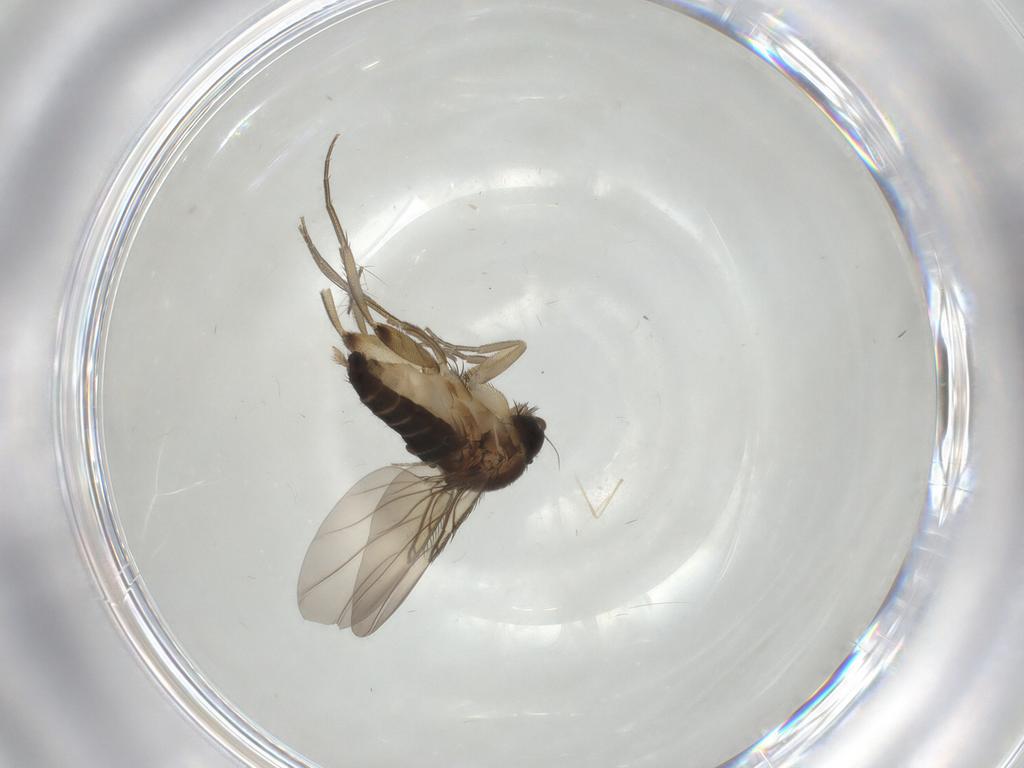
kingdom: Animalia
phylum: Arthropoda
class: Insecta
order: Diptera
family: Phoridae
